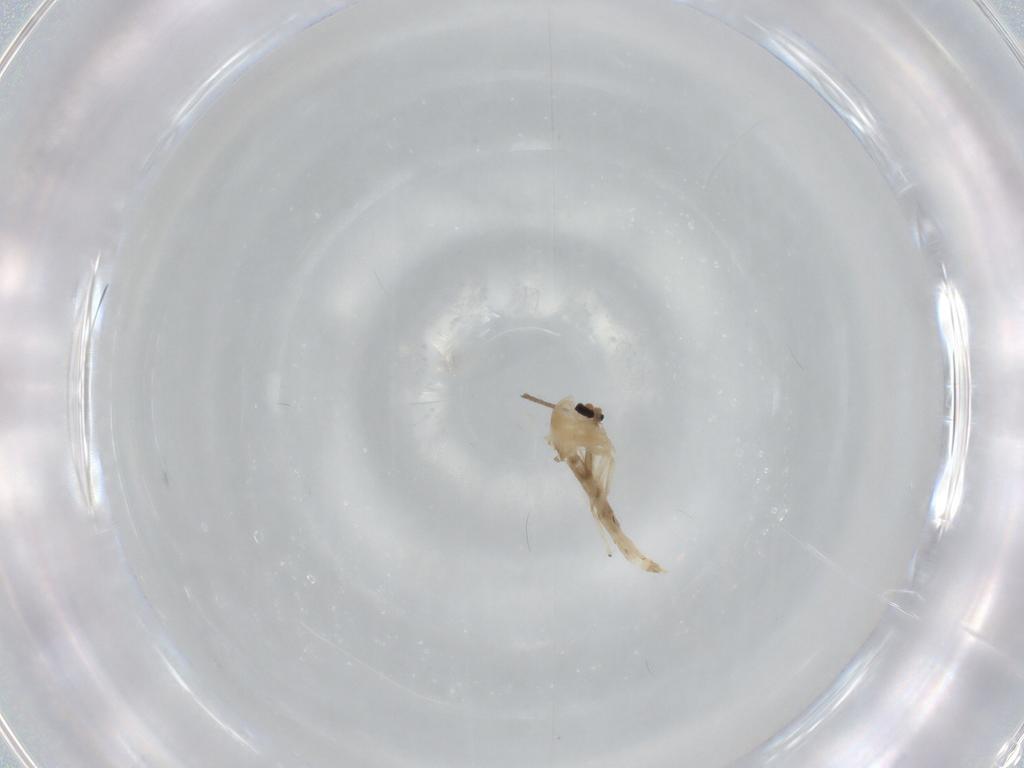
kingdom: Animalia
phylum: Arthropoda
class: Insecta
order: Diptera
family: Chironomidae
